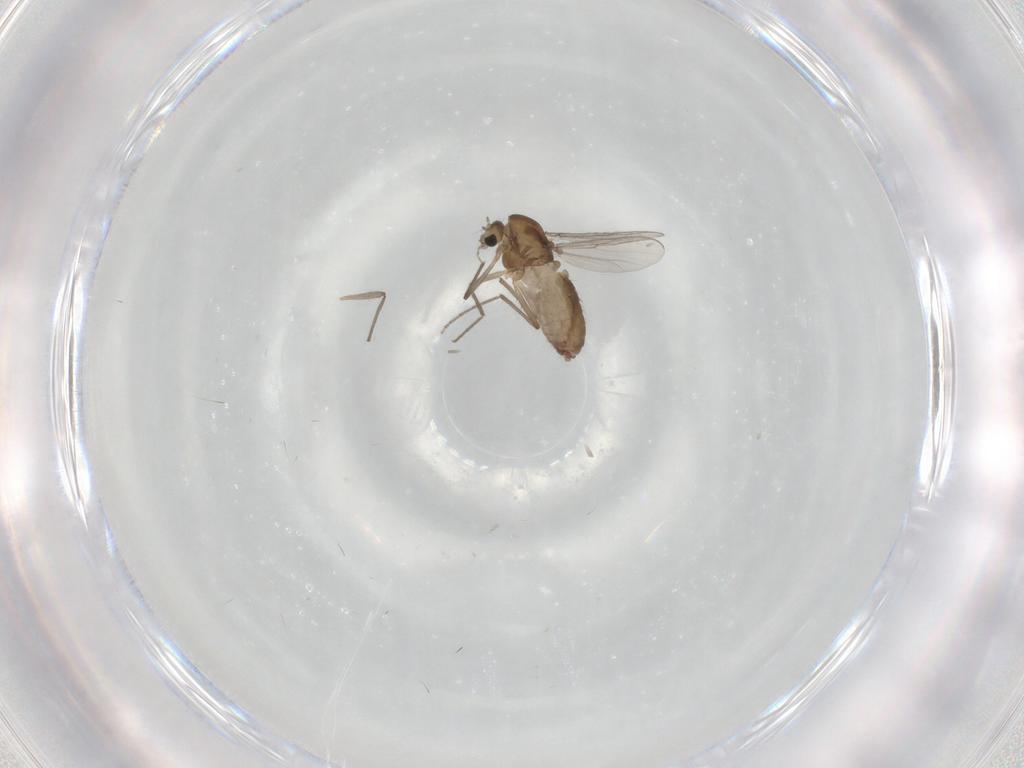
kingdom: Animalia
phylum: Arthropoda
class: Insecta
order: Diptera
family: Chironomidae
